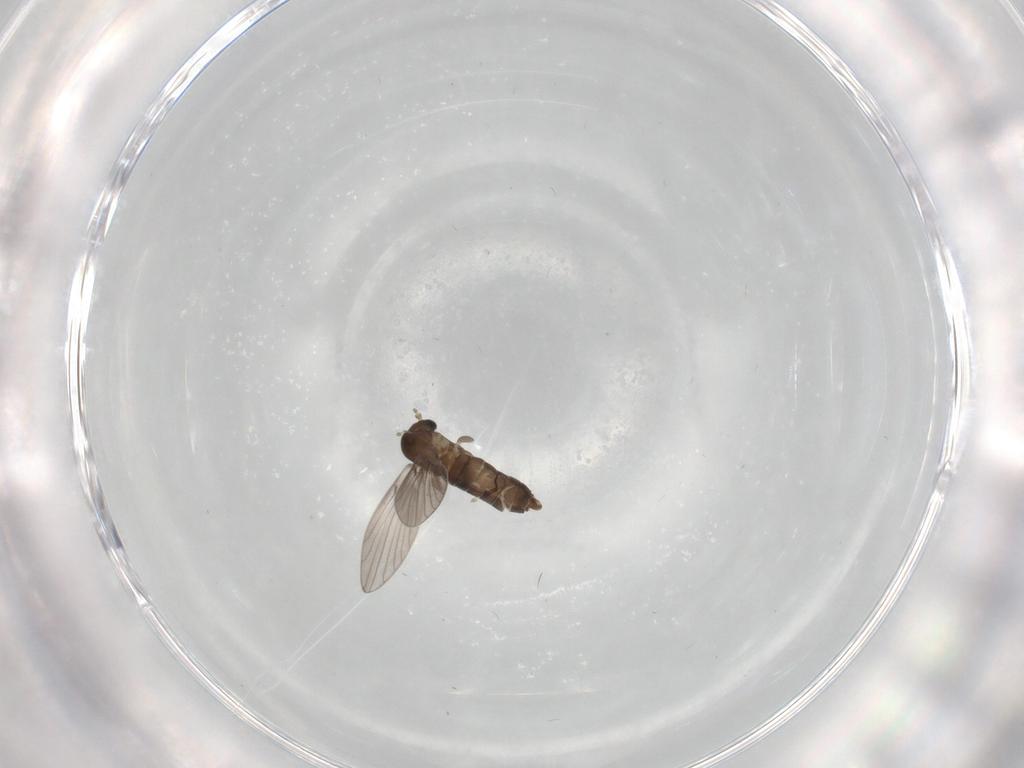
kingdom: Animalia
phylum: Arthropoda
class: Insecta
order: Diptera
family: Psychodidae
